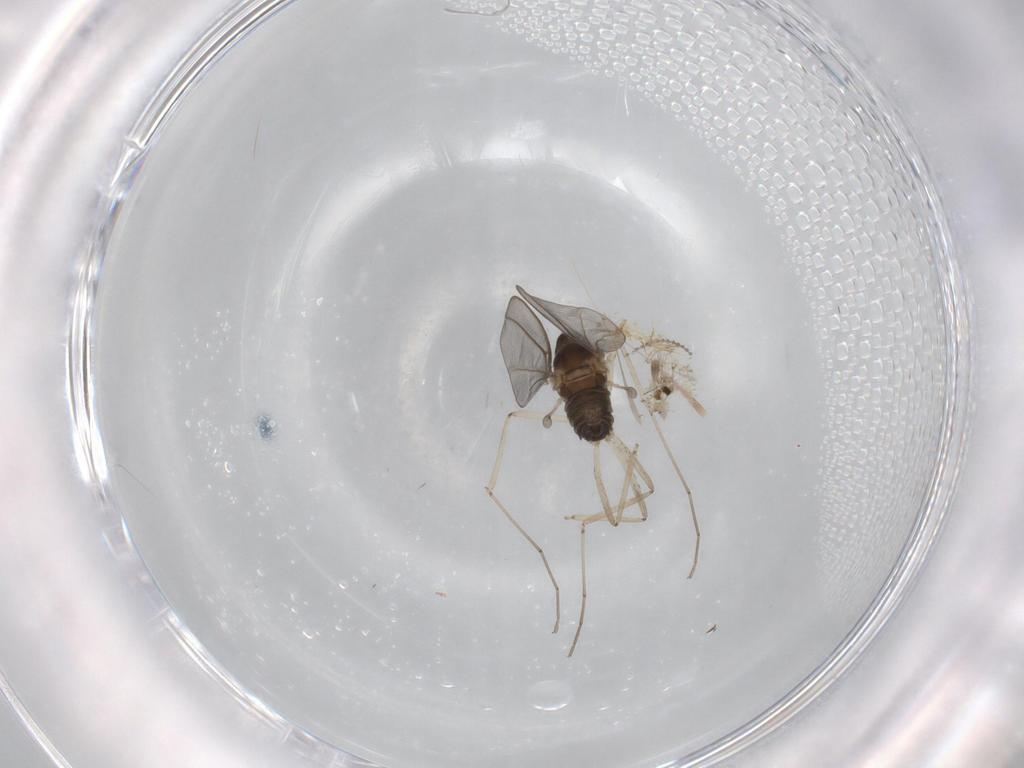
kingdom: Animalia
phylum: Arthropoda
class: Insecta
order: Diptera
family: Cecidomyiidae
